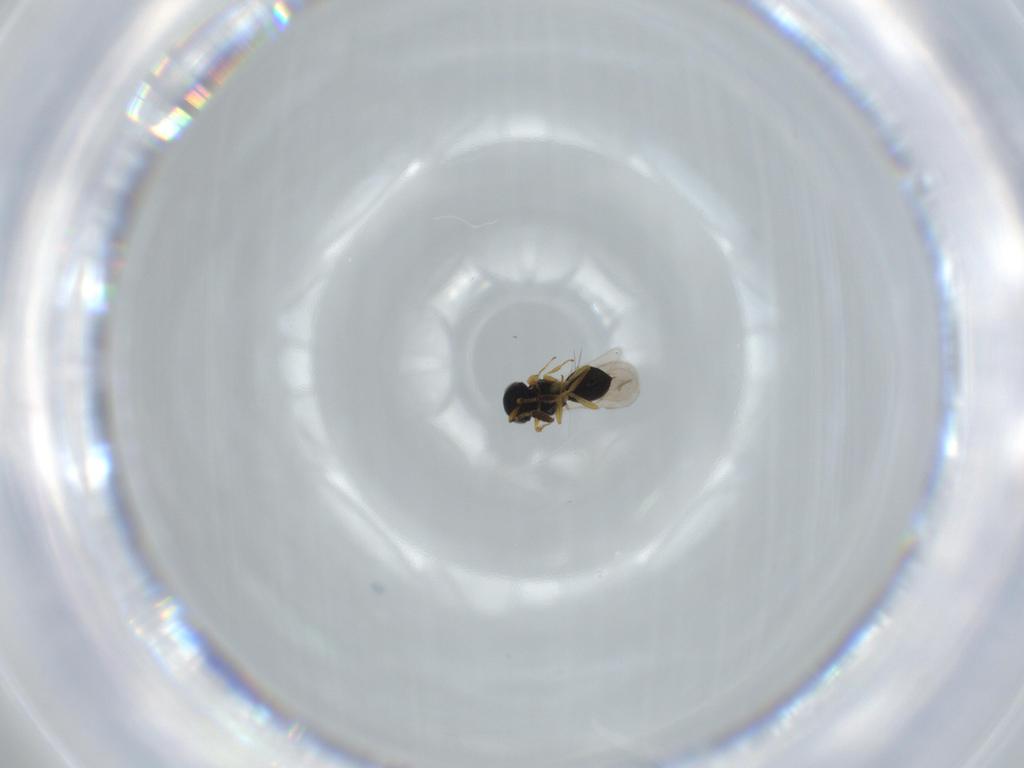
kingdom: Animalia
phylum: Arthropoda
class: Insecta
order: Hymenoptera
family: Scelionidae
